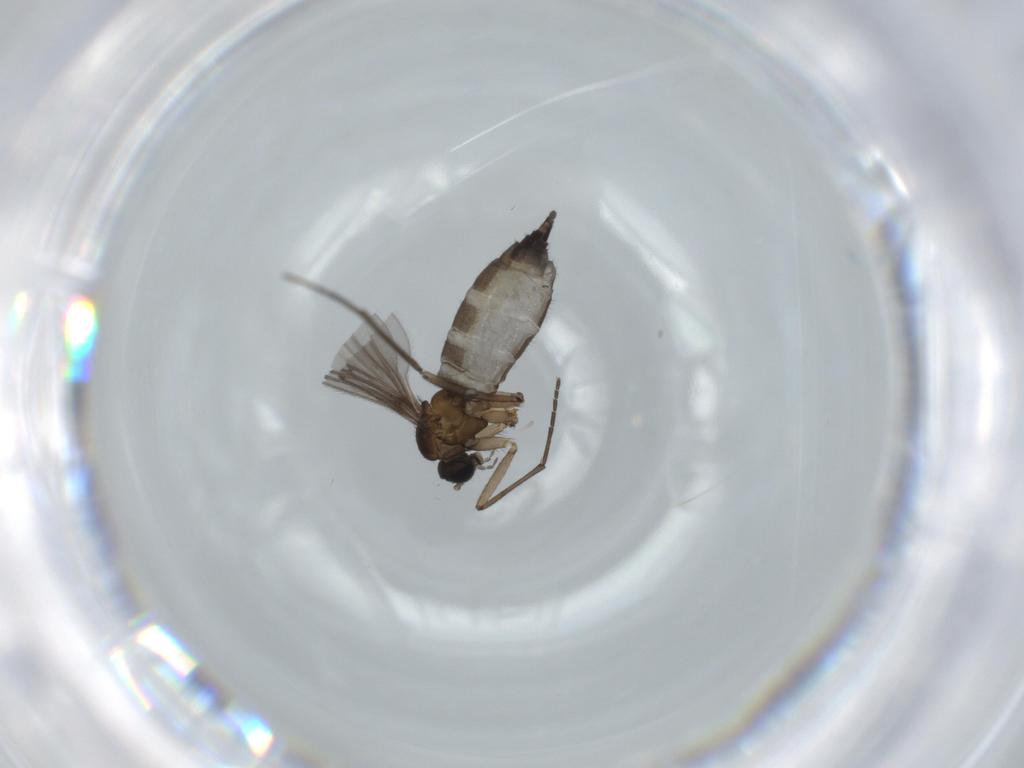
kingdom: Animalia
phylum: Arthropoda
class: Insecta
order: Diptera
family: Sciaridae
